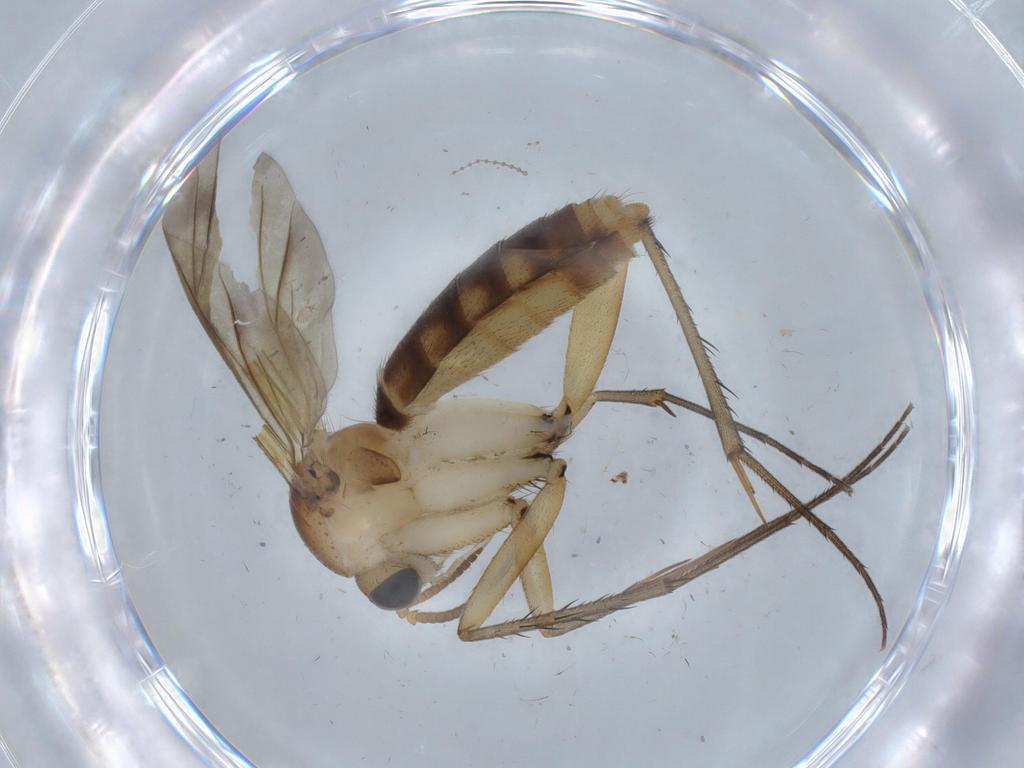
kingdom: Animalia
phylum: Arthropoda
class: Insecta
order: Diptera
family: Mycetophilidae
